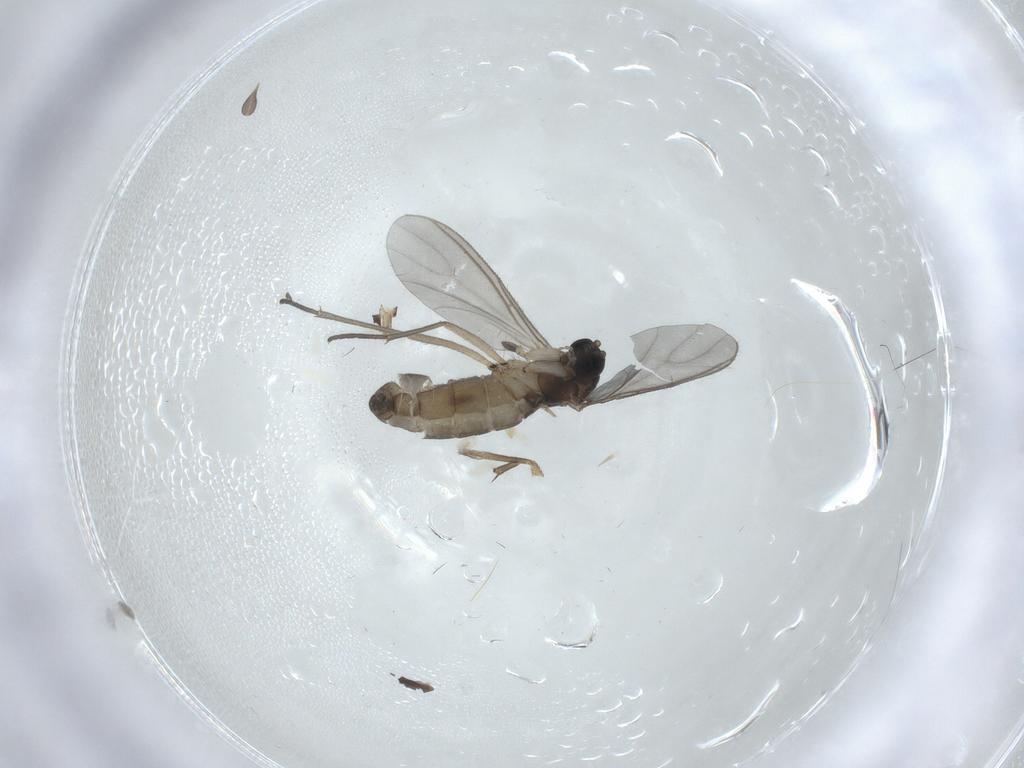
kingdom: Animalia
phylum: Arthropoda
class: Insecta
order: Diptera
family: Sciaridae
